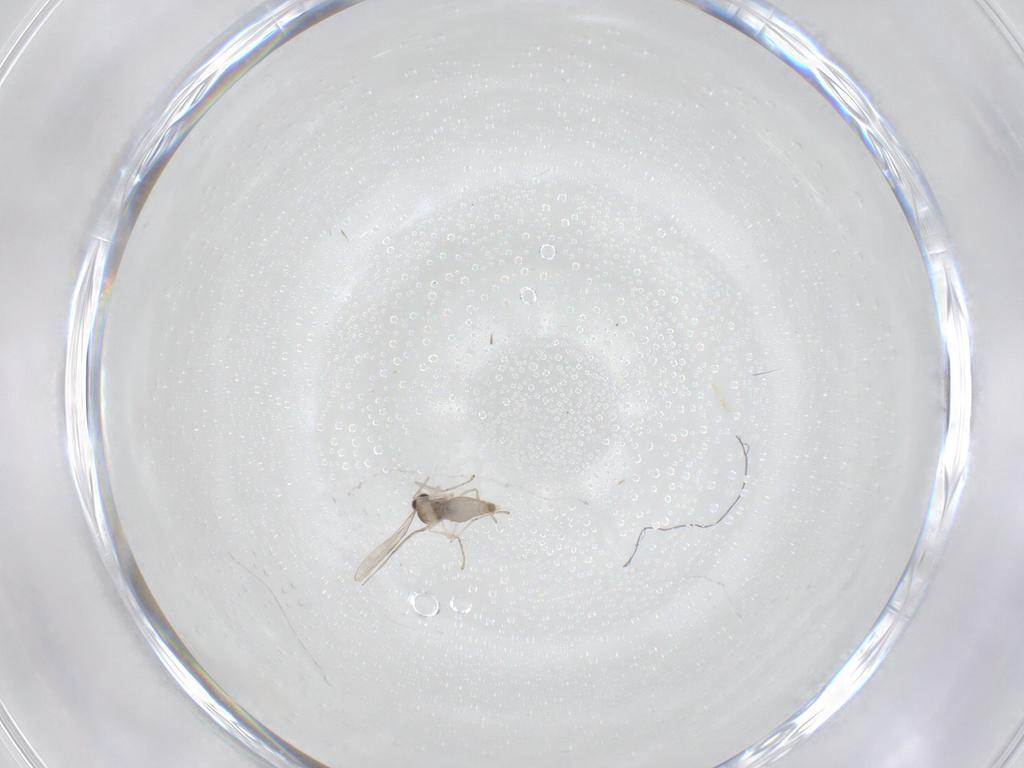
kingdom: Animalia
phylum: Arthropoda
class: Insecta
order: Diptera
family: Cecidomyiidae
